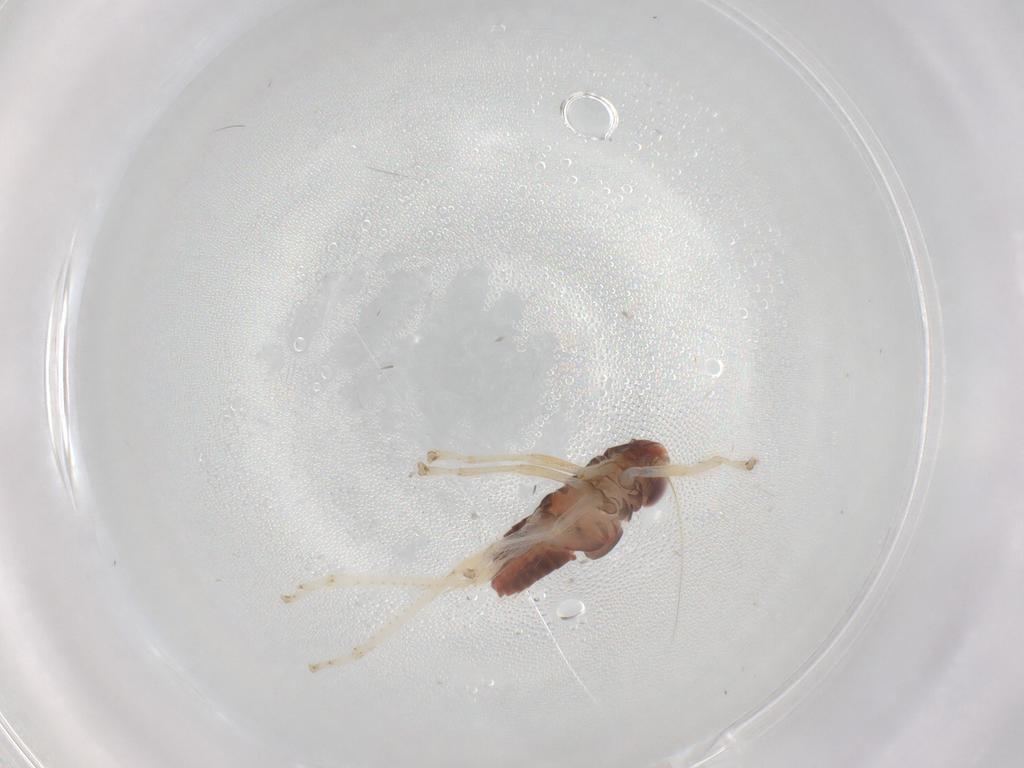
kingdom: Animalia
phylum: Arthropoda
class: Insecta
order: Hemiptera
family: Cicadellidae
